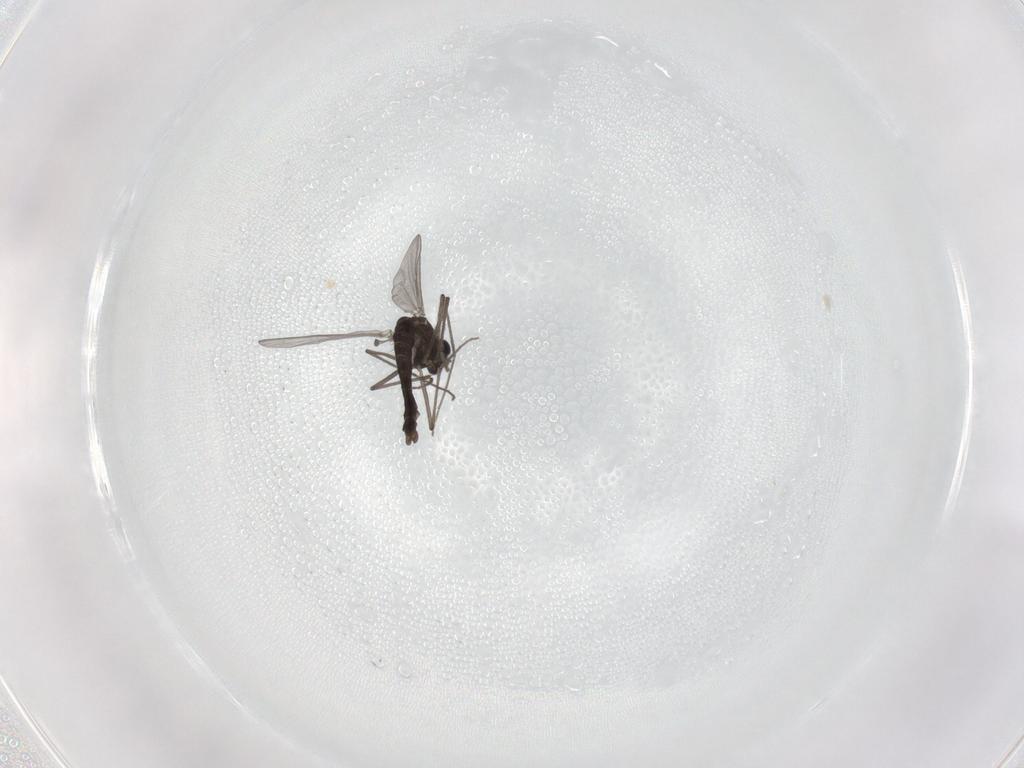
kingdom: Animalia
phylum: Arthropoda
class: Insecta
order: Diptera
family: Chironomidae
